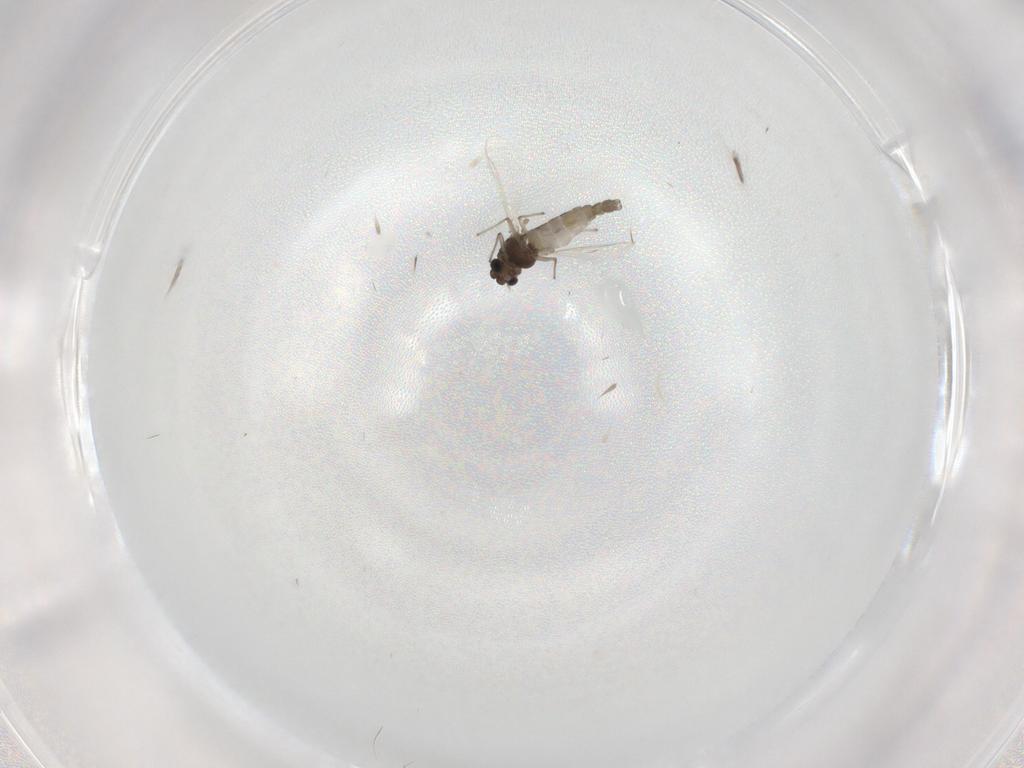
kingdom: Animalia
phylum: Arthropoda
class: Insecta
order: Diptera
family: Chironomidae
